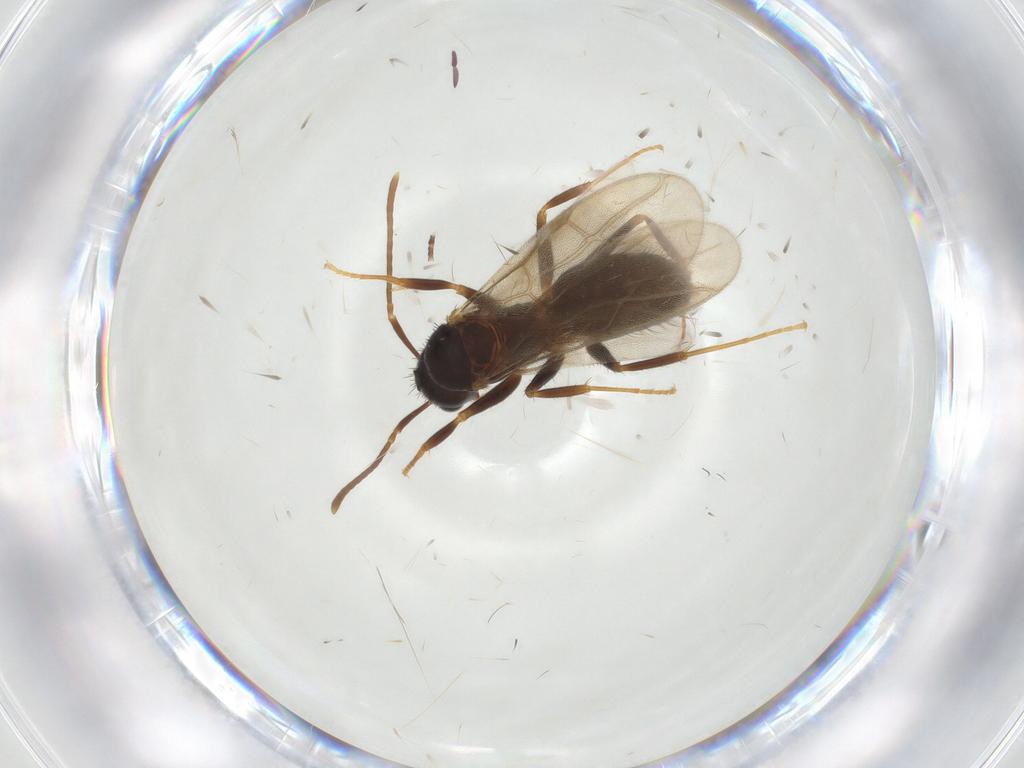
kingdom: Animalia
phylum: Arthropoda
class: Insecta
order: Hymenoptera
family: Formicidae
